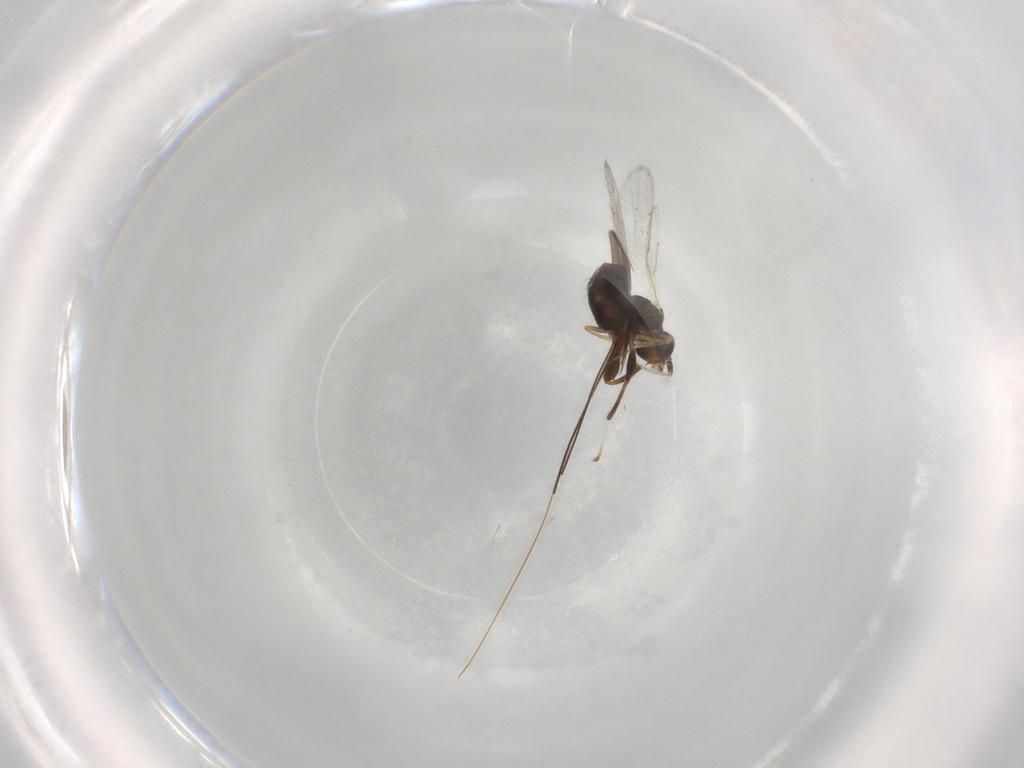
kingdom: Animalia
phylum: Arthropoda
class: Insecta
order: Hymenoptera
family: Torymidae
